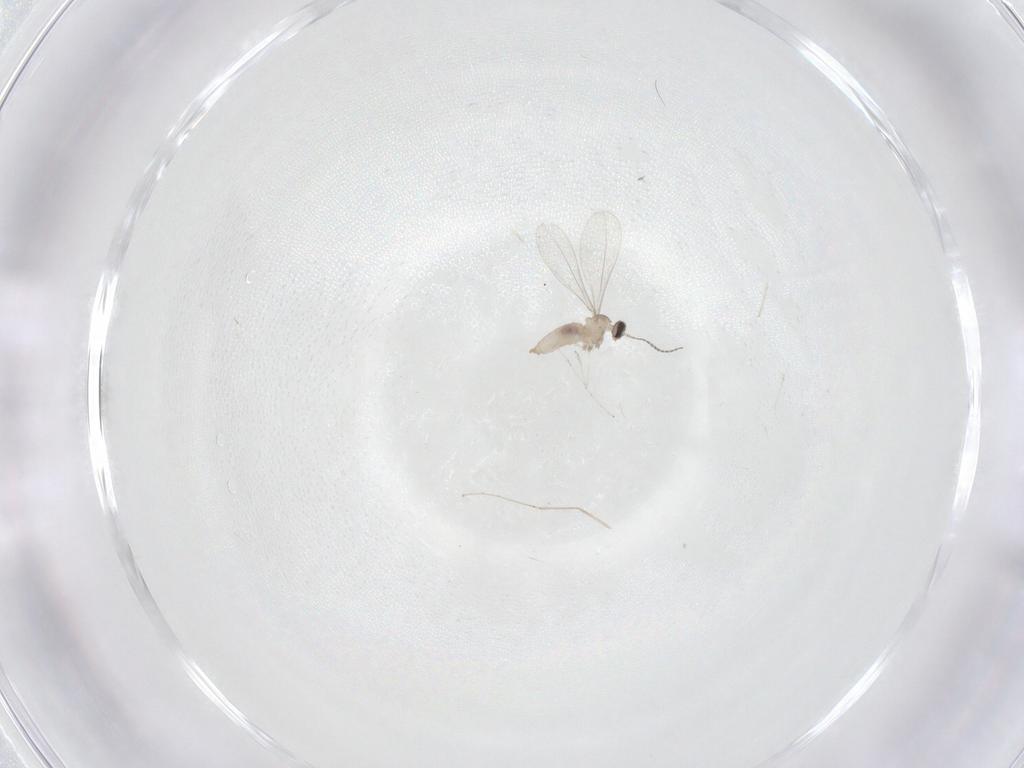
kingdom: Animalia
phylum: Arthropoda
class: Insecta
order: Diptera
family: Cecidomyiidae
